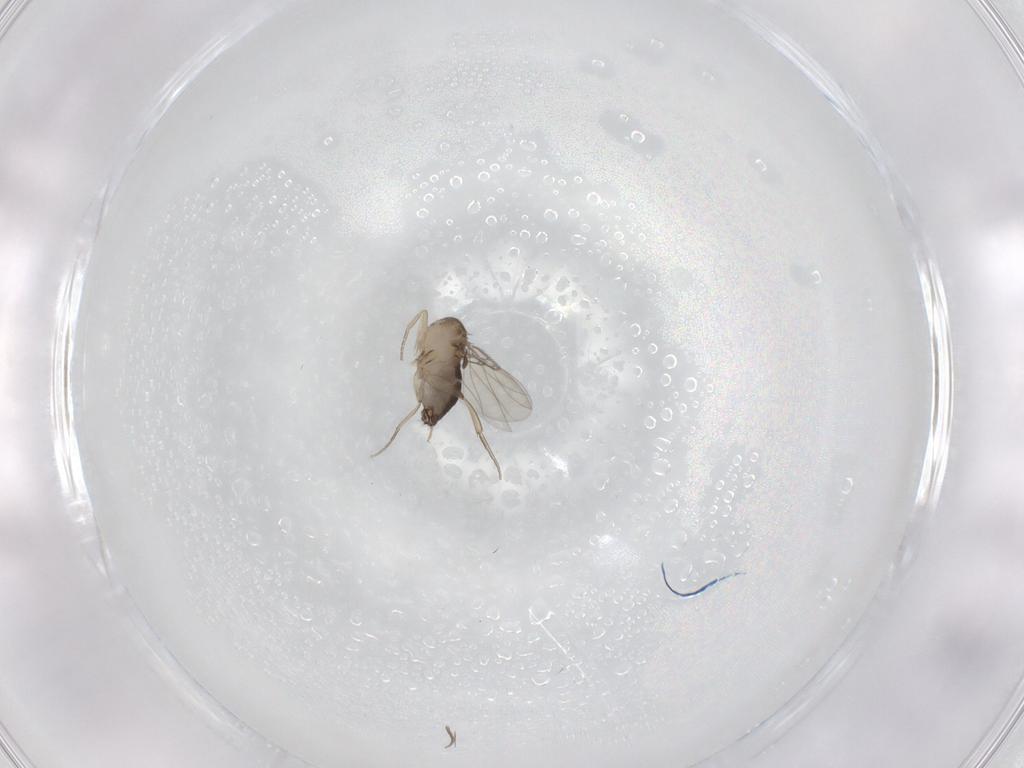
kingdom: Animalia
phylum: Arthropoda
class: Insecta
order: Diptera
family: Phoridae
